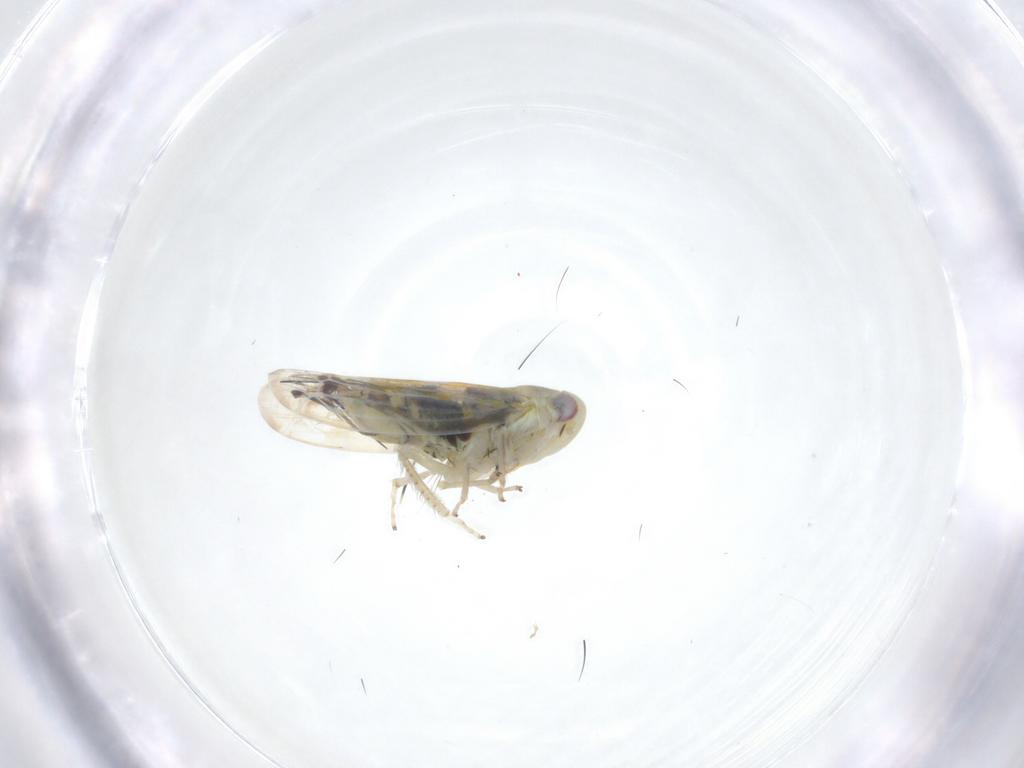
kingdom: Animalia
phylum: Arthropoda
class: Insecta
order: Hemiptera
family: Cicadellidae
